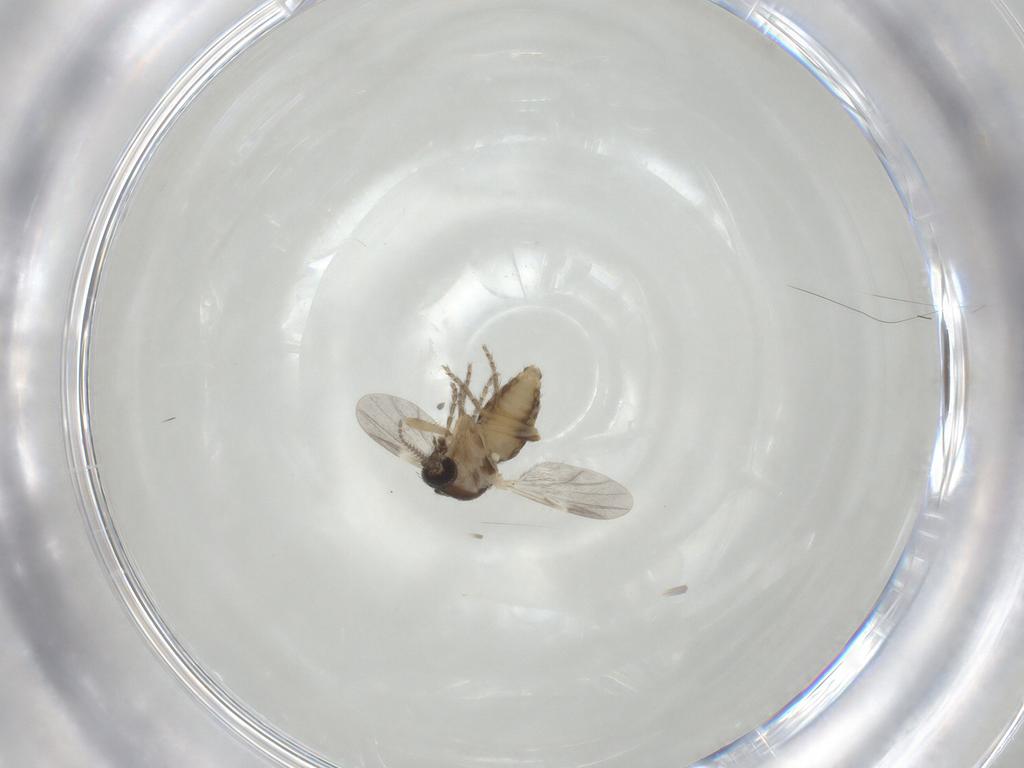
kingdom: Animalia
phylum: Arthropoda
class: Insecta
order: Diptera
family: Ceratopogonidae
